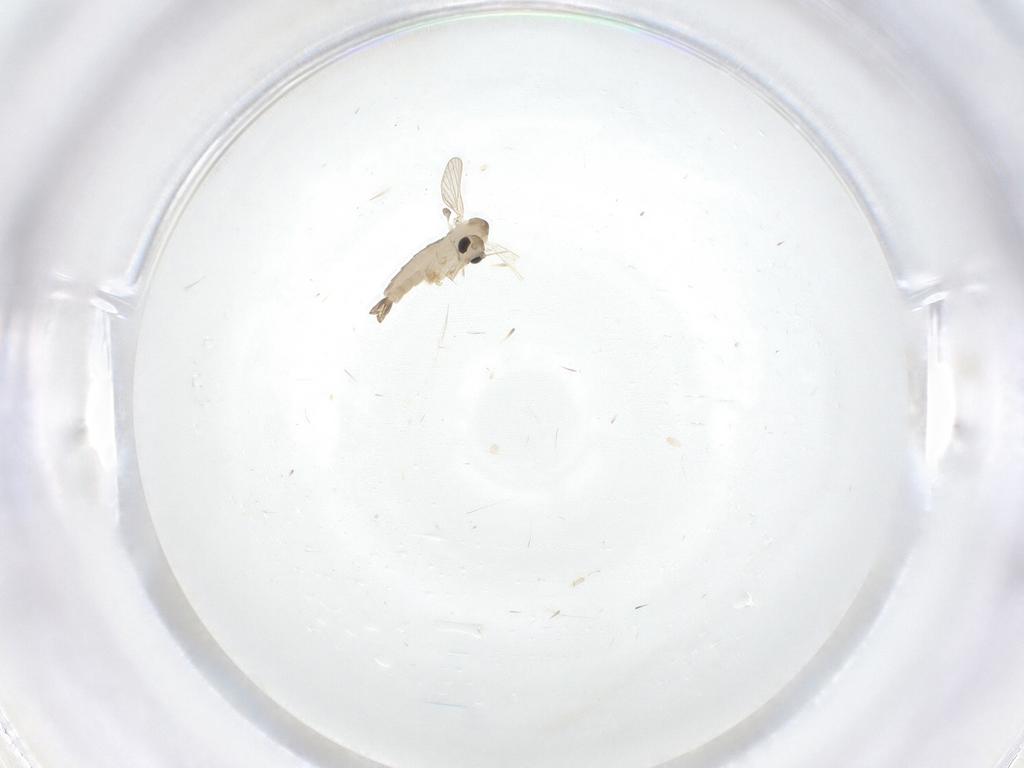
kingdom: Animalia
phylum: Arthropoda
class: Insecta
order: Diptera
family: Psychodidae
